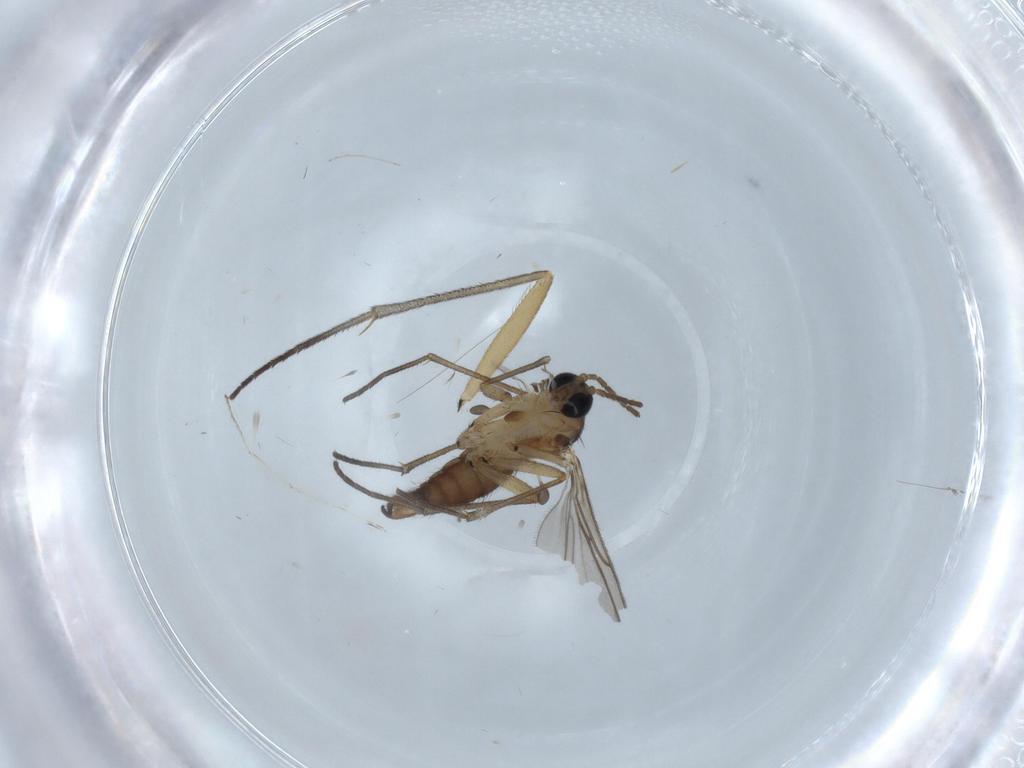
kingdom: Animalia
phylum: Arthropoda
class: Insecta
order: Diptera
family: Sciaridae
